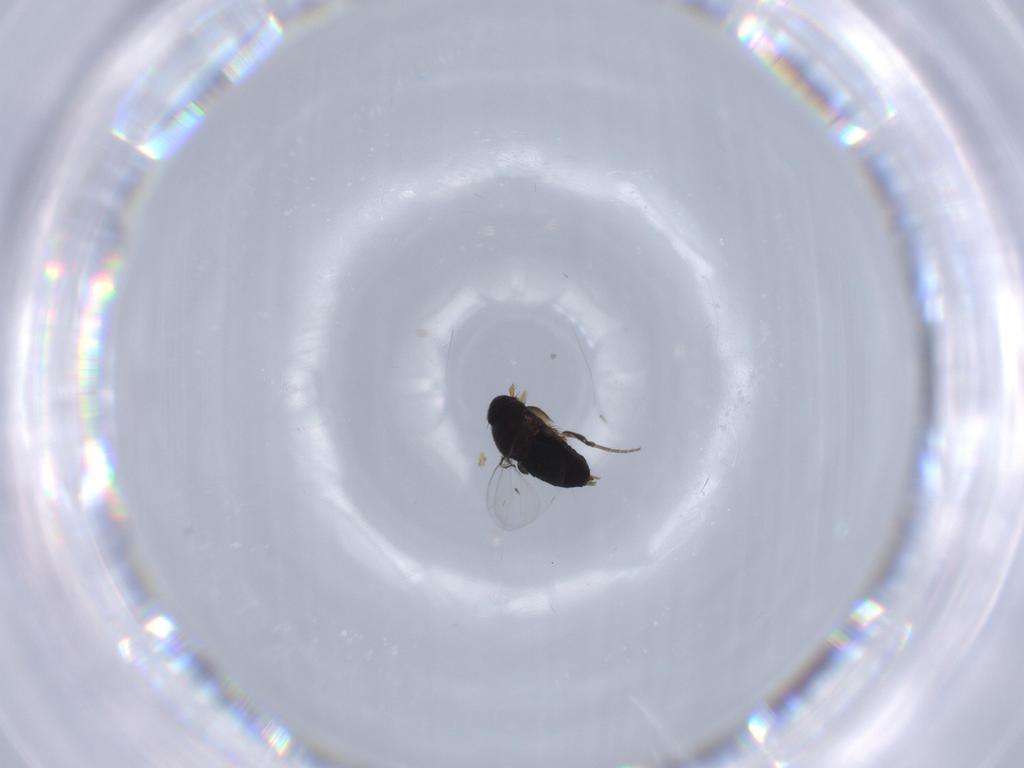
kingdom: Animalia
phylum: Arthropoda
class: Insecta
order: Diptera
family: Phoridae
